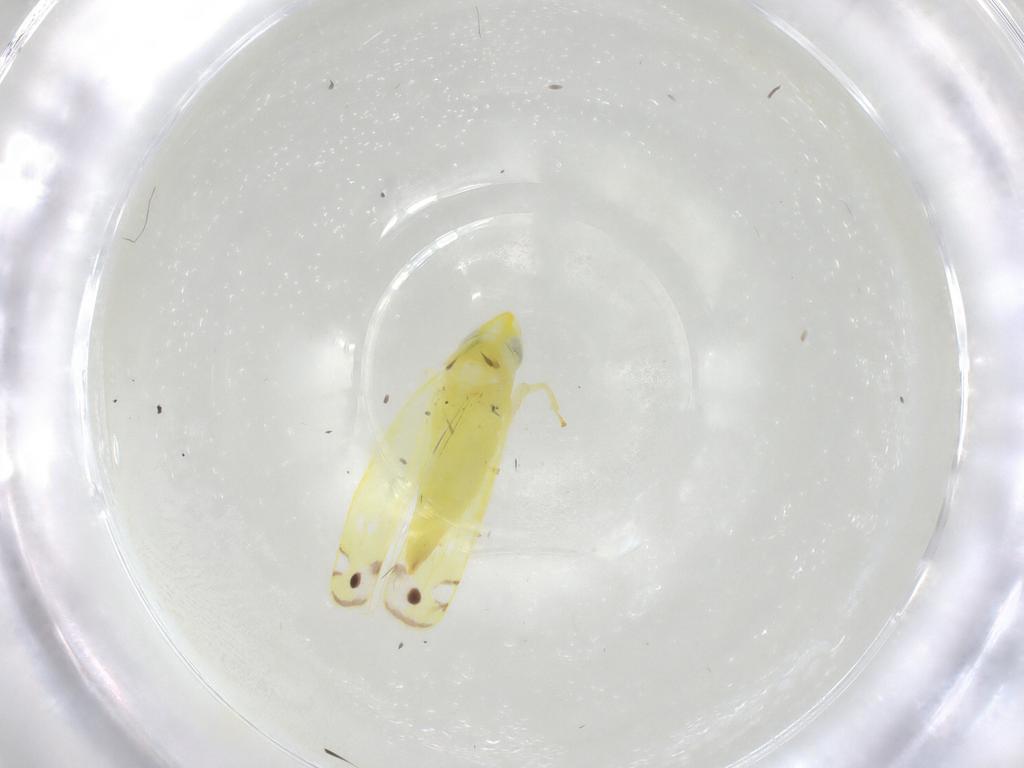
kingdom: Animalia
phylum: Arthropoda
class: Insecta
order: Hemiptera
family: Cicadellidae
